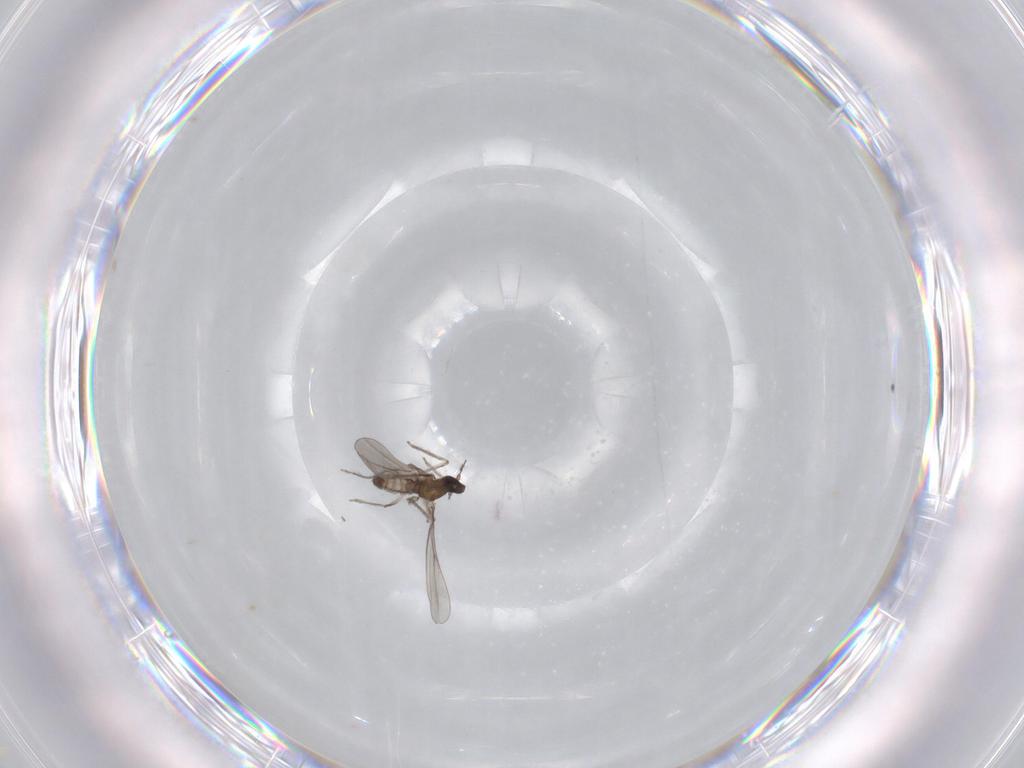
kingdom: Animalia
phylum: Arthropoda
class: Insecta
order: Diptera
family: Cecidomyiidae
